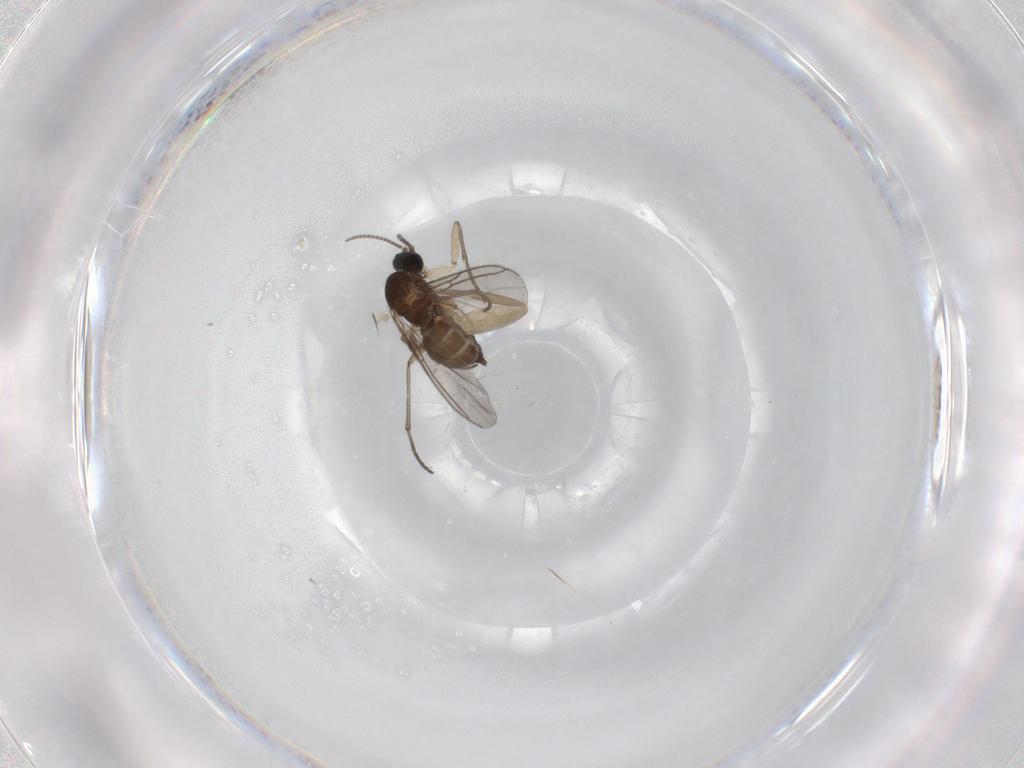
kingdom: Animalia
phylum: Arthropoda
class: Insecta
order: Diptera
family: Phoridae
